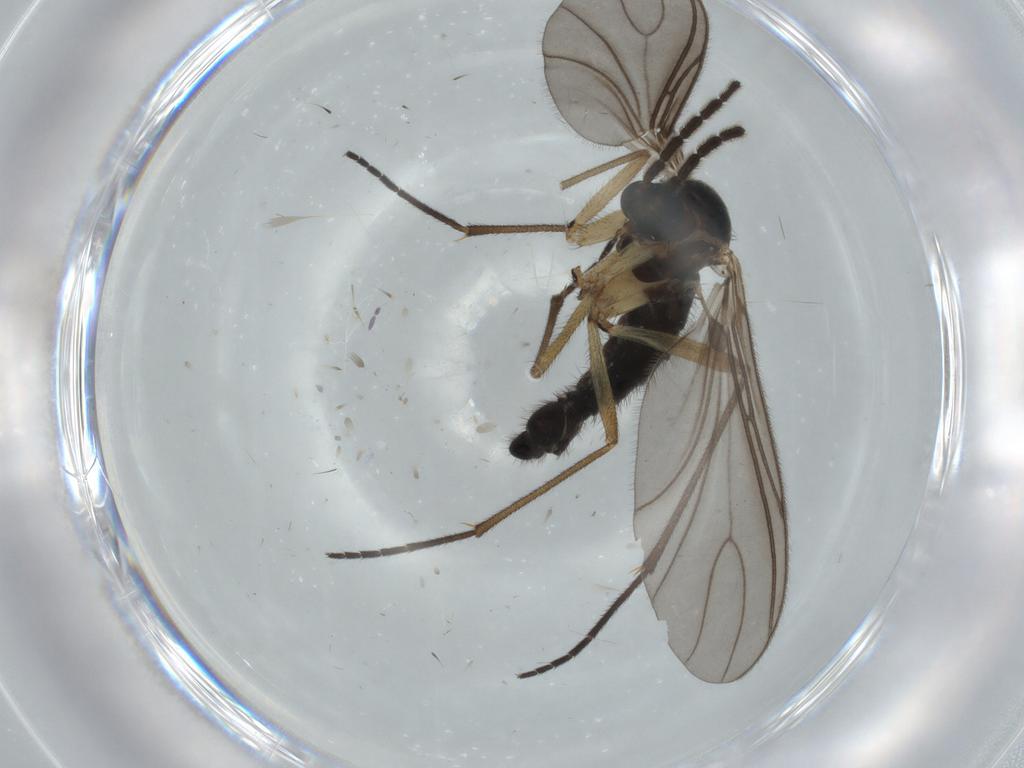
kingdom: Animalia
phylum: Arthropoda
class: Insecta
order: Diptera
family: Sciaridae
